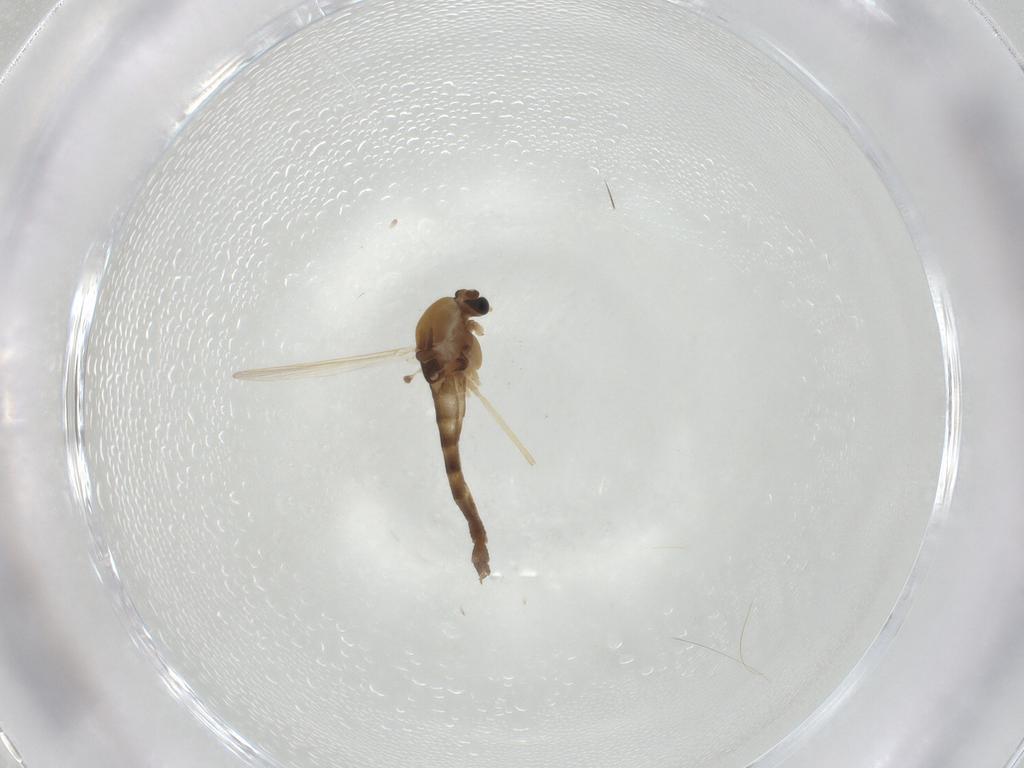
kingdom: Animalia
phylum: Arthropoda
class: Insecta
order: Diptera
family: Chironomidae
